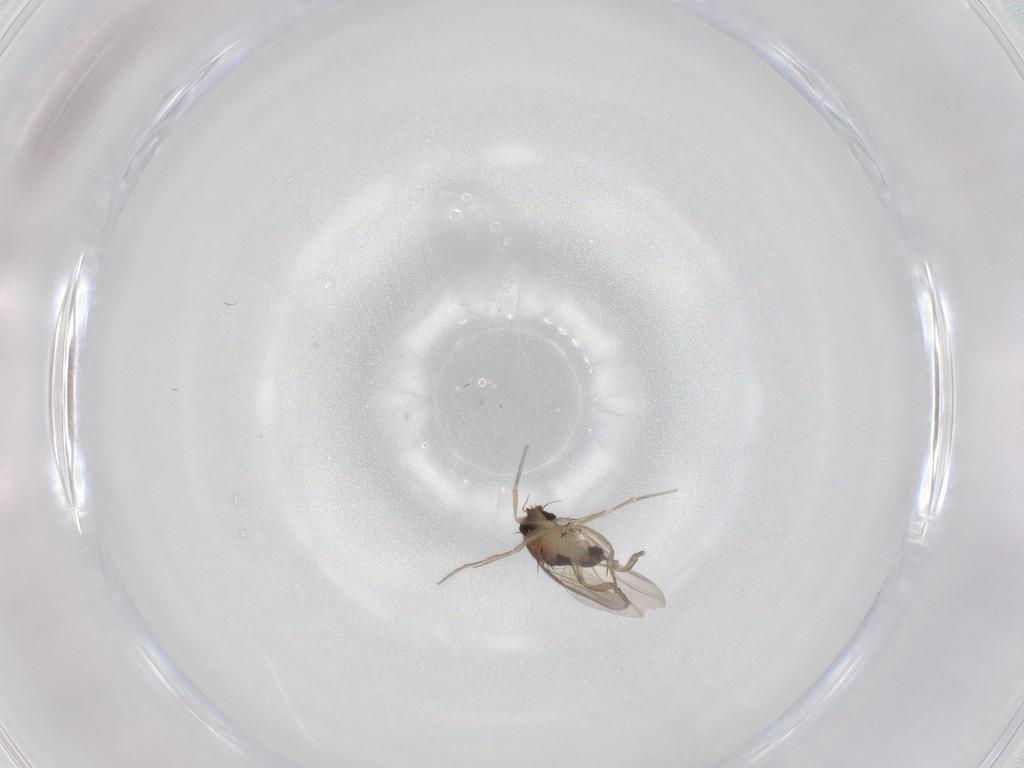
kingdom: Animalia
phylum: Arthropoda
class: Insecta
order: Diptera
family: Phoridae
